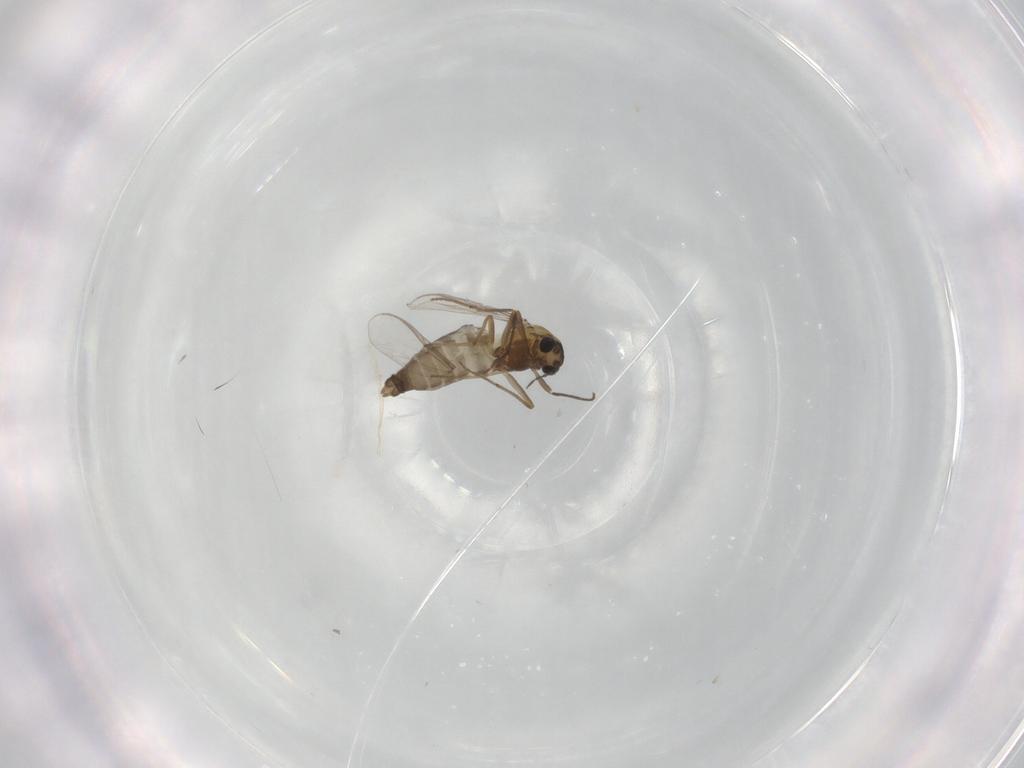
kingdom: Animalia
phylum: Arthropoda
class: Insecta
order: Diptera
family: Chironomidae
